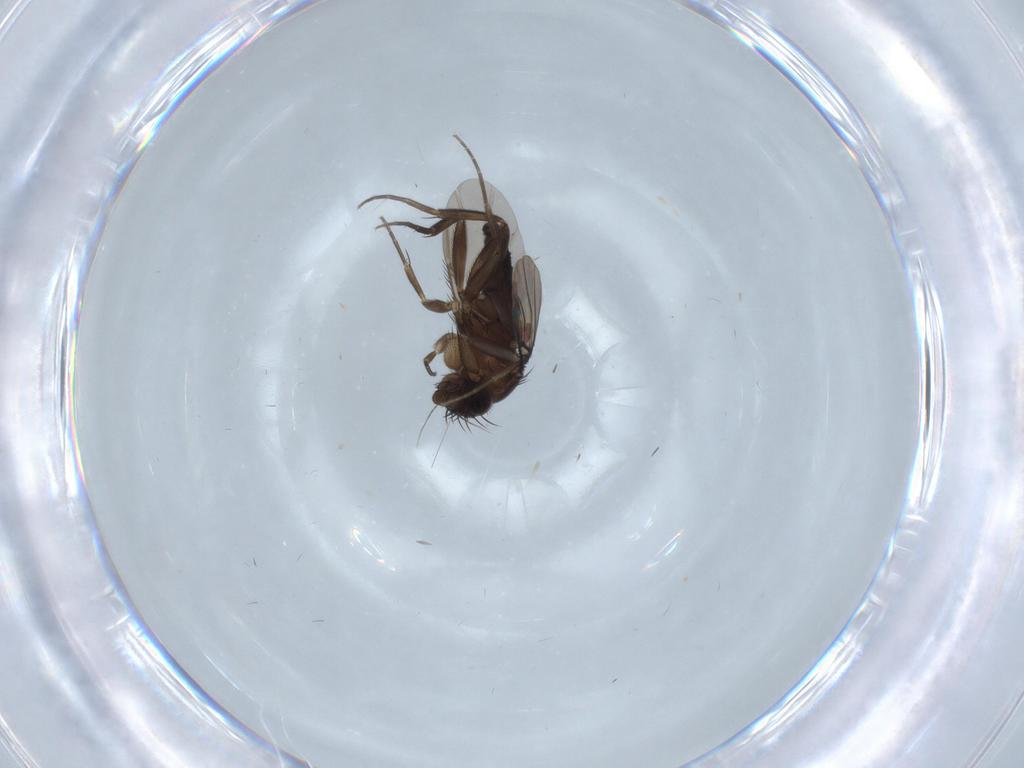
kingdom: Animalia
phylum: Arthropoda
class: Insecta
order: Diptera
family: Phoridae
